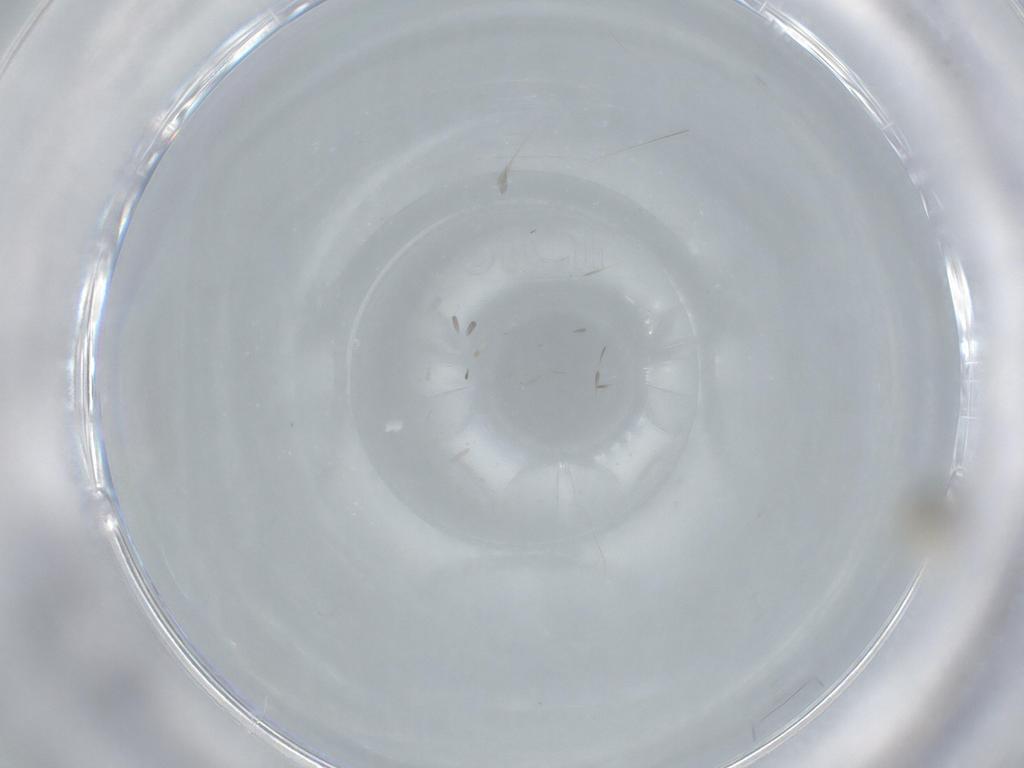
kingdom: Animalia
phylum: Arthropoda
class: Insecta
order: Diptera
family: Cecidomyiidae
